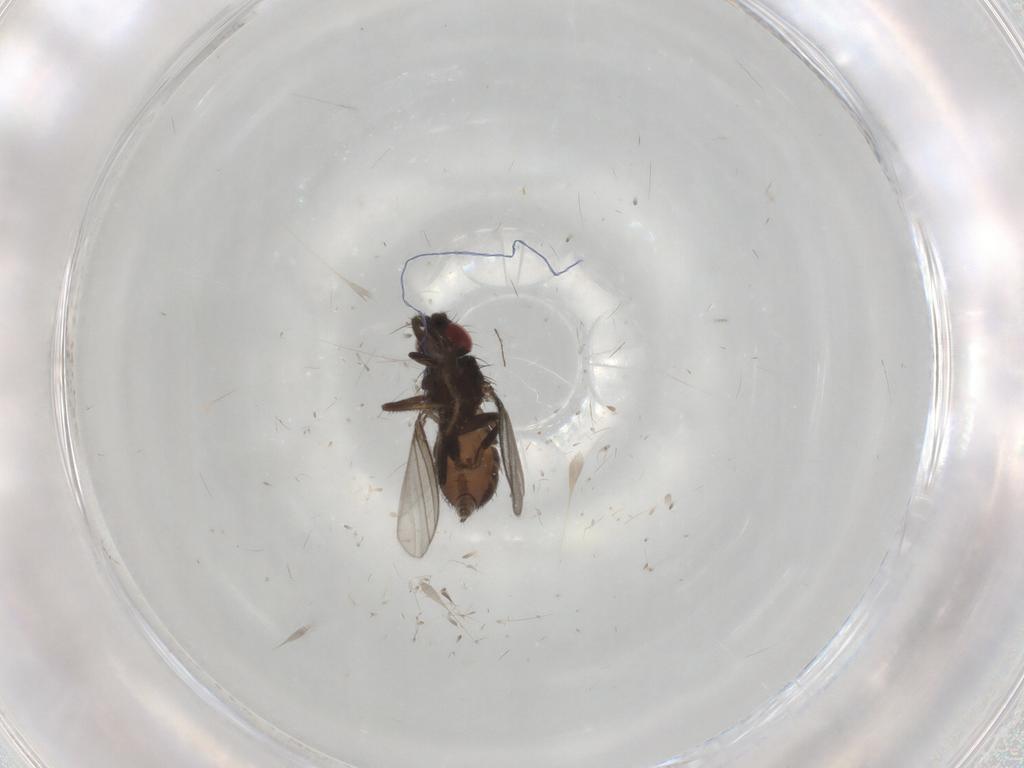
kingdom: Animalia
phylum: Arthropoda
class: Insecta
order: Diptera
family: Milichiidae
